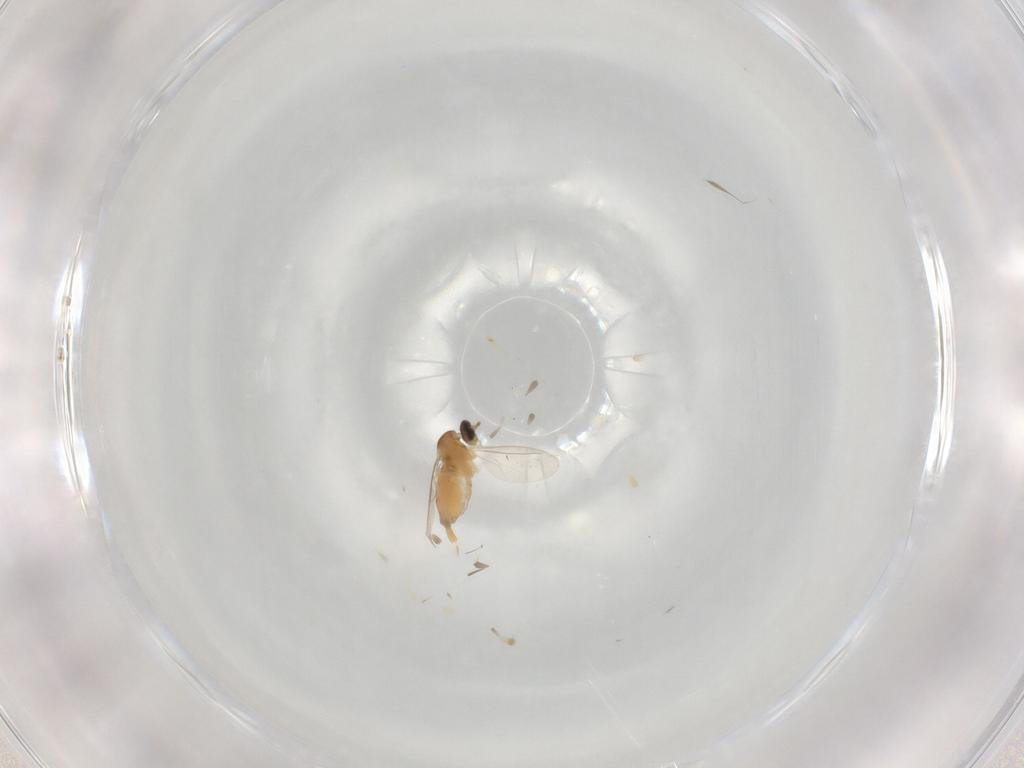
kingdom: Animalia
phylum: Arthropoda
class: Insecta
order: Diptera
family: Cecidomyiidae
